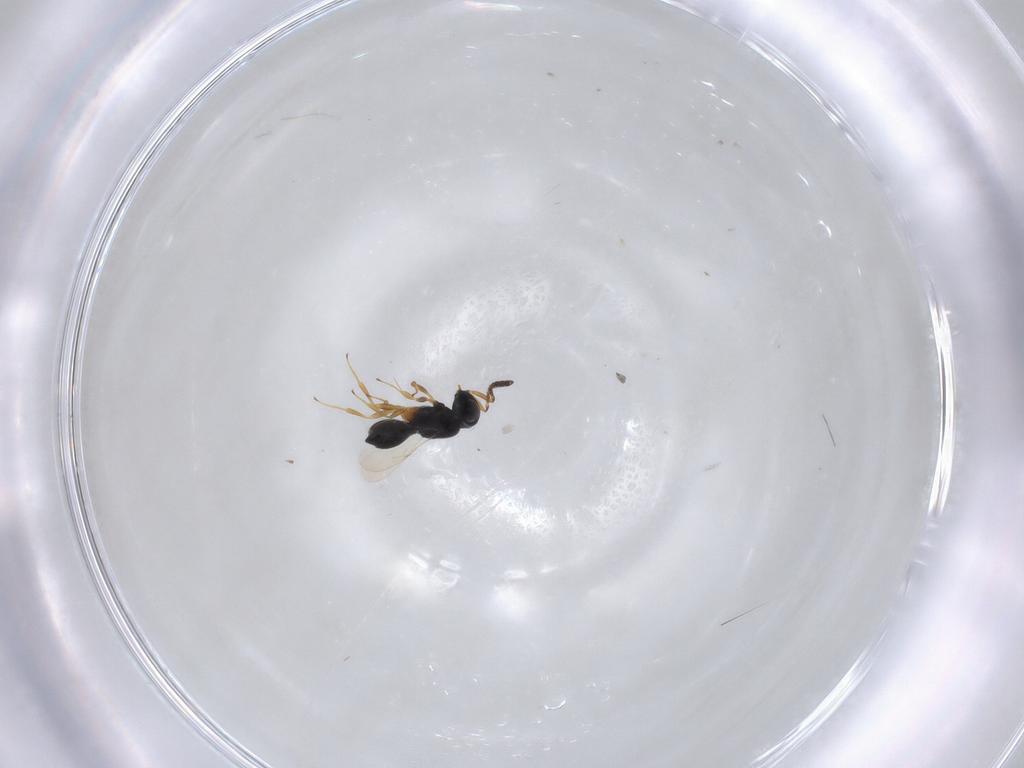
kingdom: Animalia
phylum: Arthropoda
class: Insecta
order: Hymenoptera
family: Scelionidae
